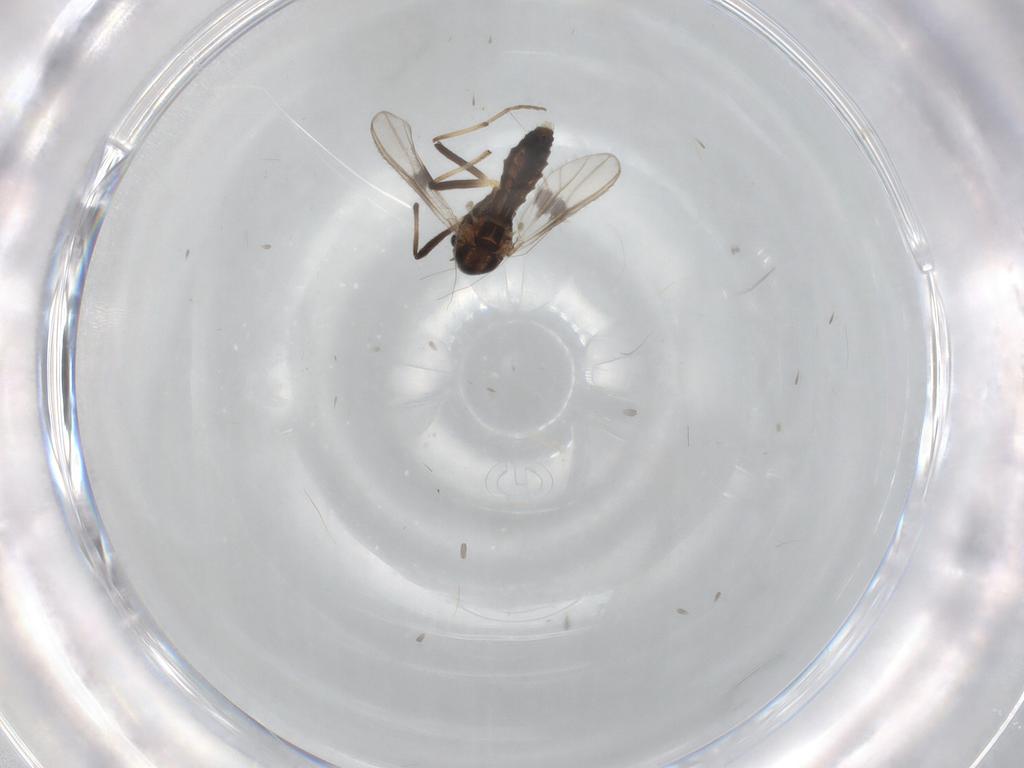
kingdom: Animalia
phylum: Arthropoda
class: Insecta
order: Diptera
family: Chironomidae
